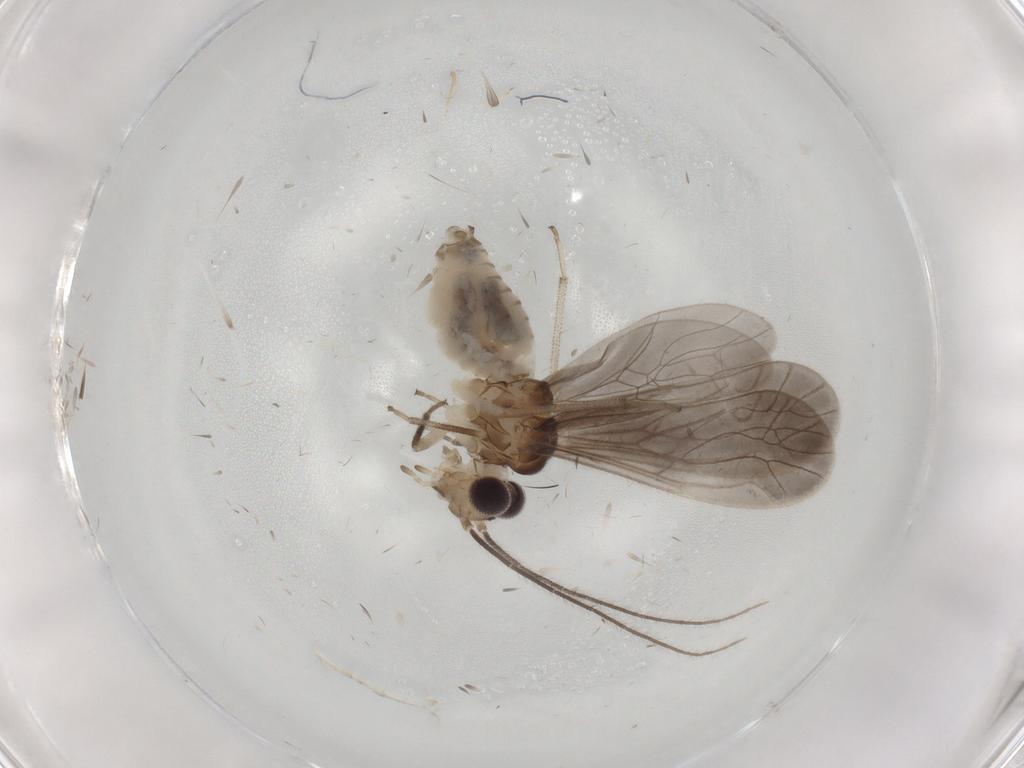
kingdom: Animalia
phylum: Arthropoda
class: Insecta
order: Psocodea
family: Caeciliusidae
